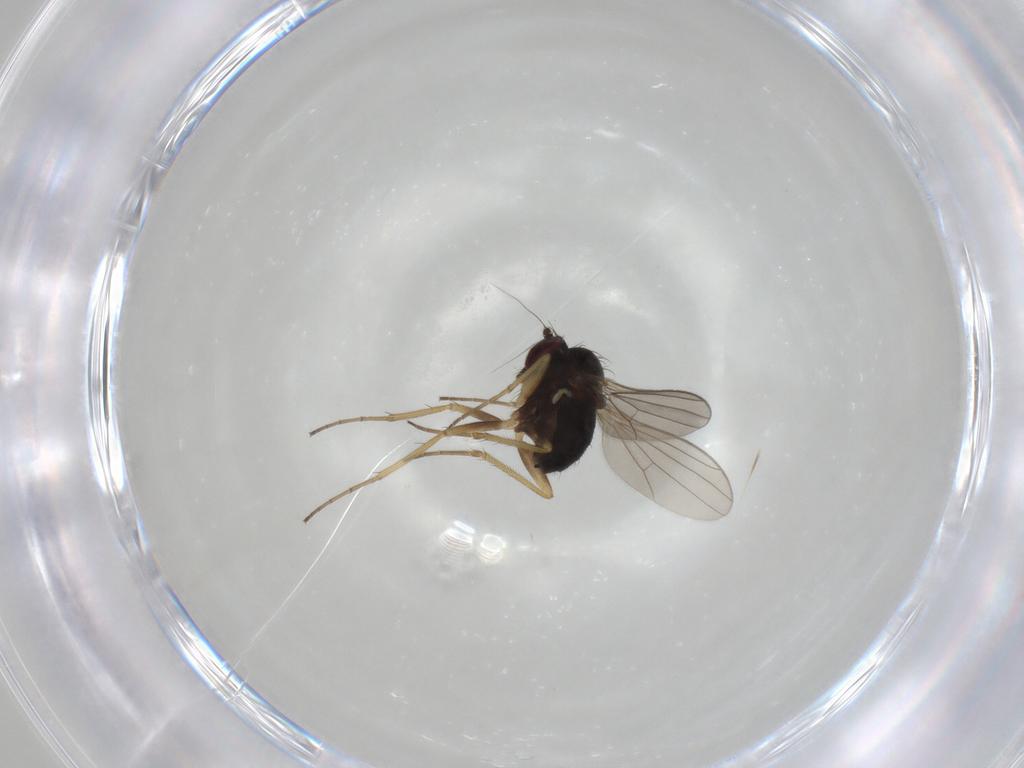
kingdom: Animalia
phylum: Arthropoda
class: Insecta
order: Diptera
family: Dolichopodidae
